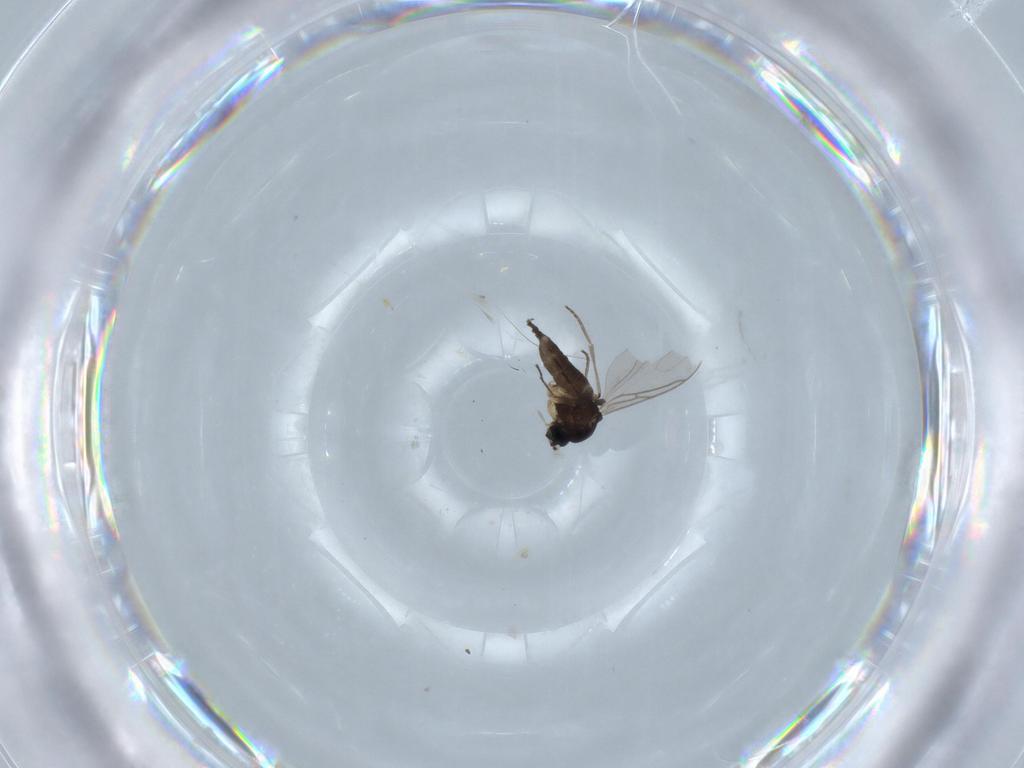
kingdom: Animalia
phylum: Arthropoda
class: Insecta
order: Diptera
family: Sciaridae
